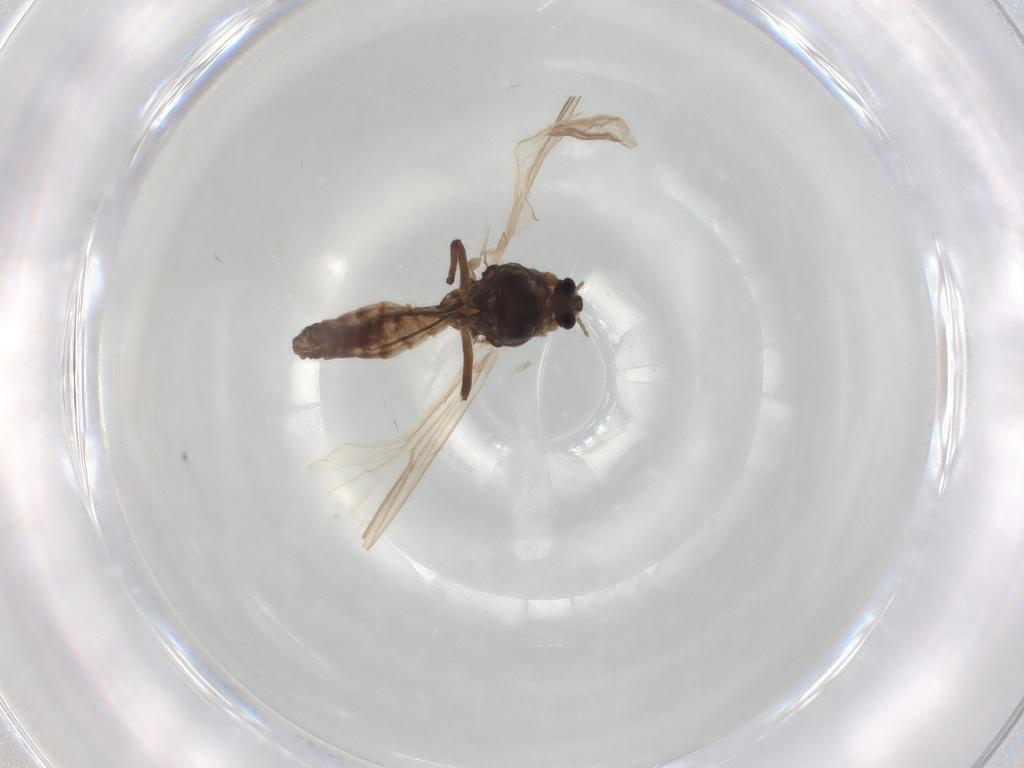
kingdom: Animalia
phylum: Arthropoda
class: Insecta
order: Diptera
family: Chironomidae
